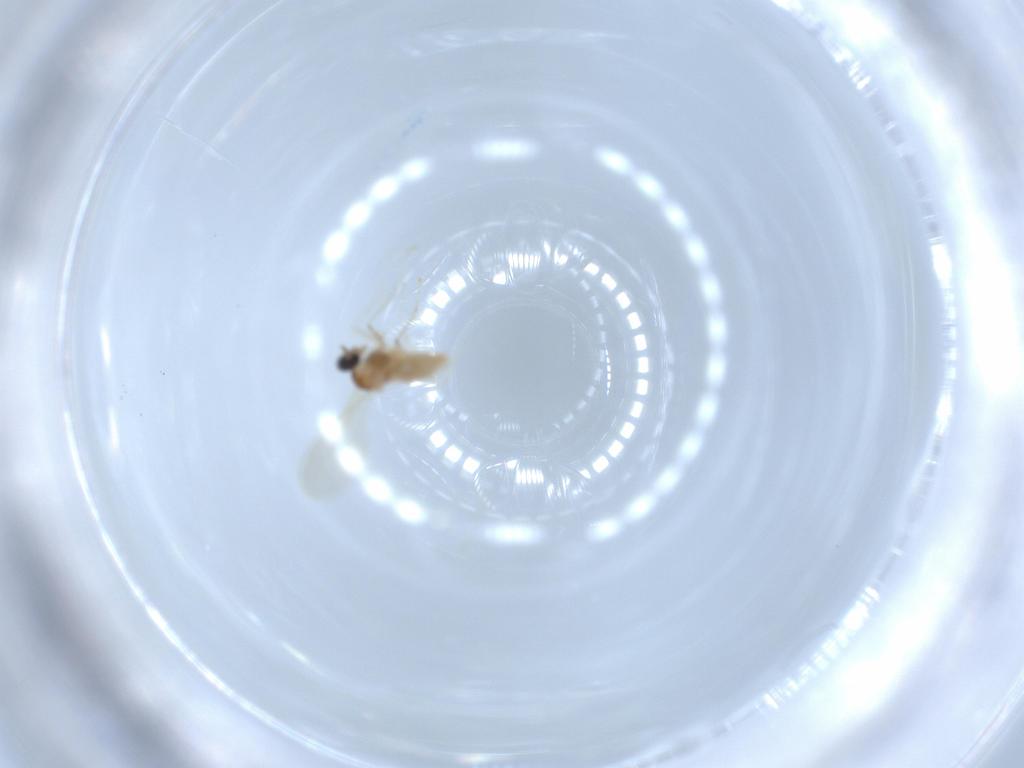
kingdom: Animalia
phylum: Arthropoda
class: Insecta
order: Diptera
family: Cecidomyiidae
